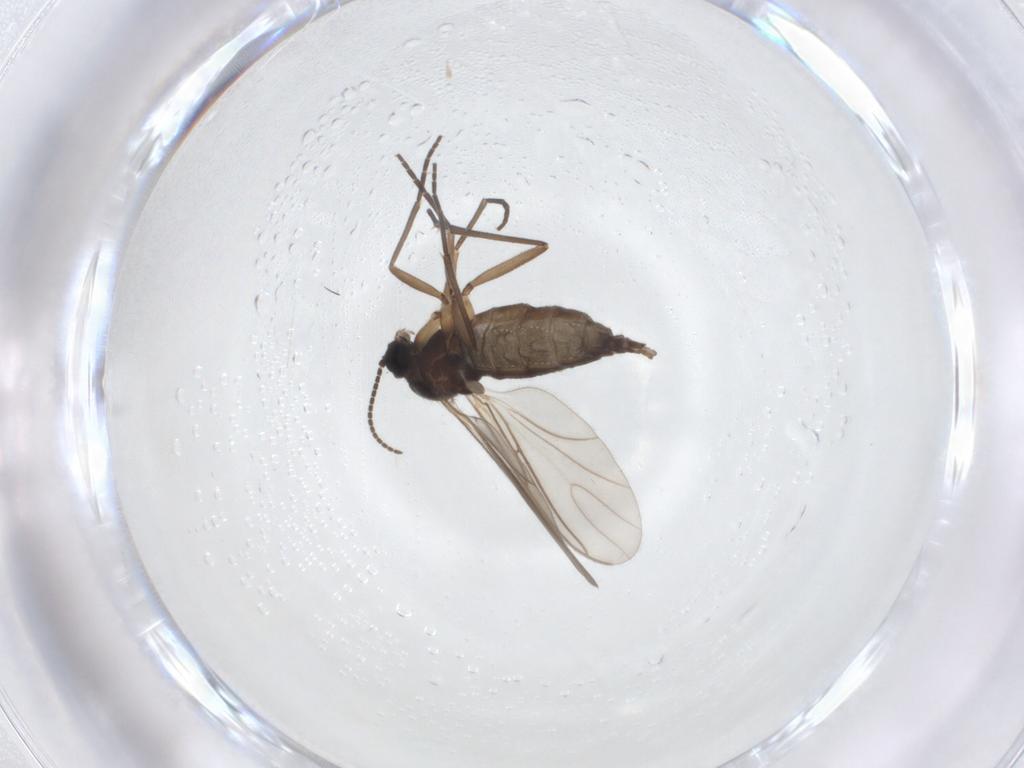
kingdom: Animalia
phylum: Arthropoda
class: Insecta
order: Diptera
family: Sciaridae
